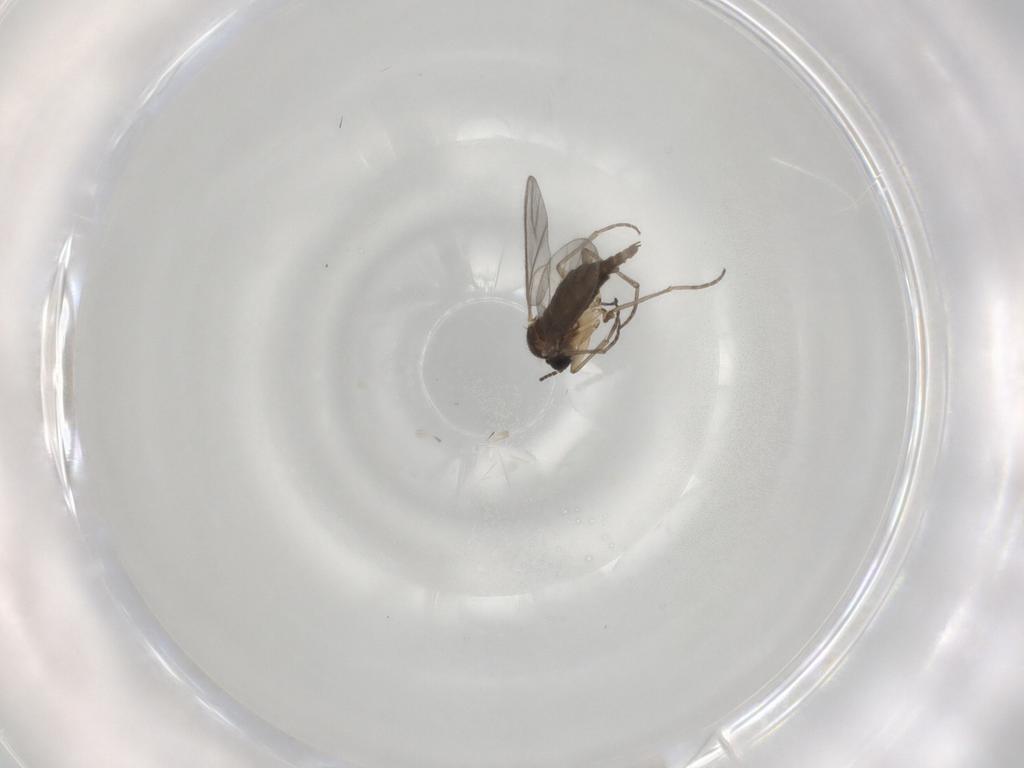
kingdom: Animalia
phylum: Arthropoda
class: Insecta
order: Diptera
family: Sciaridae
